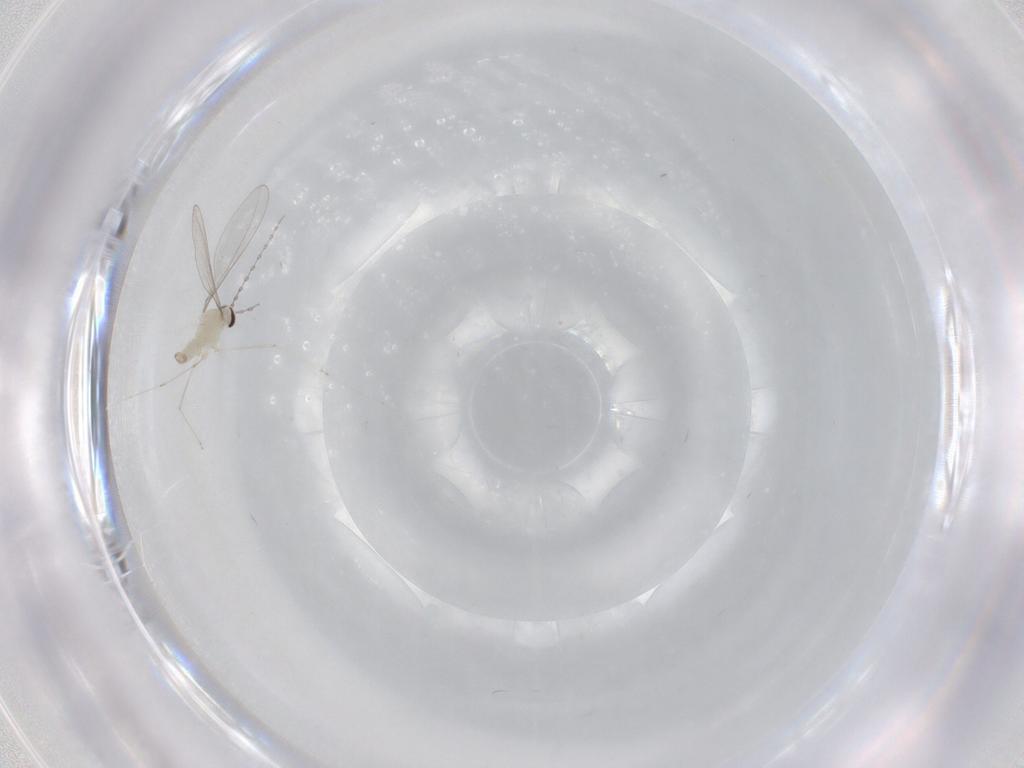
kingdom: Animalia
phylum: Arthropoda
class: Insecta
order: Diptera
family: Cecidomyiidae
